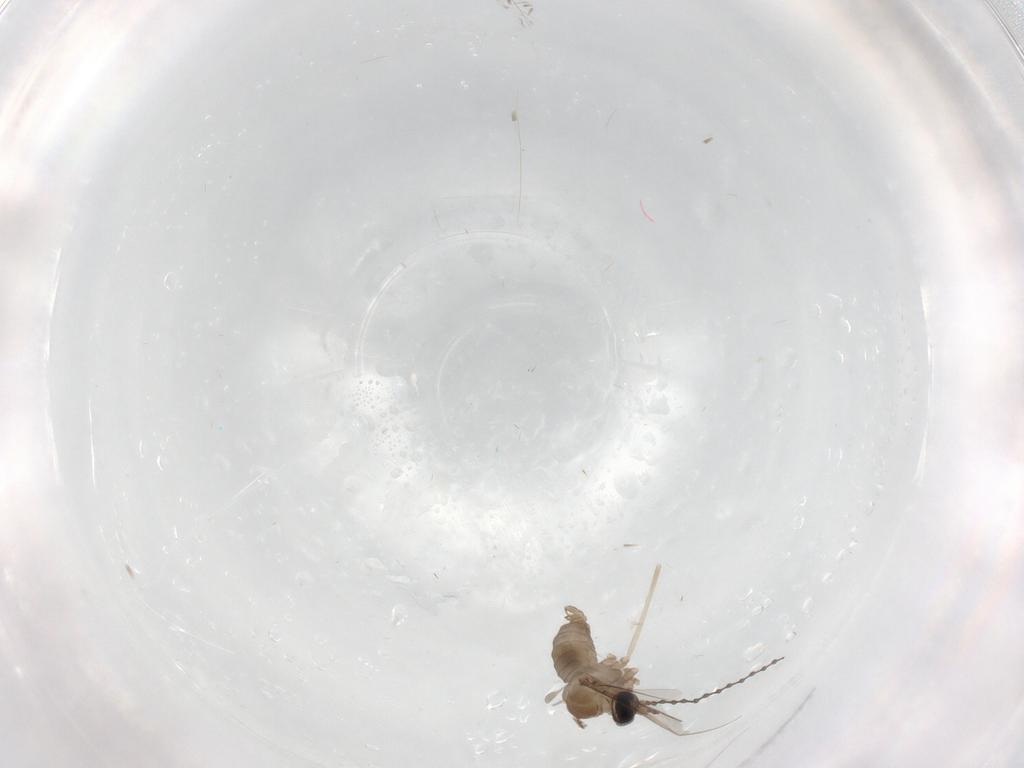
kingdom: Animalia
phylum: Arthropoda
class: Insecta
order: Diptera
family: Cecidomyiidae
